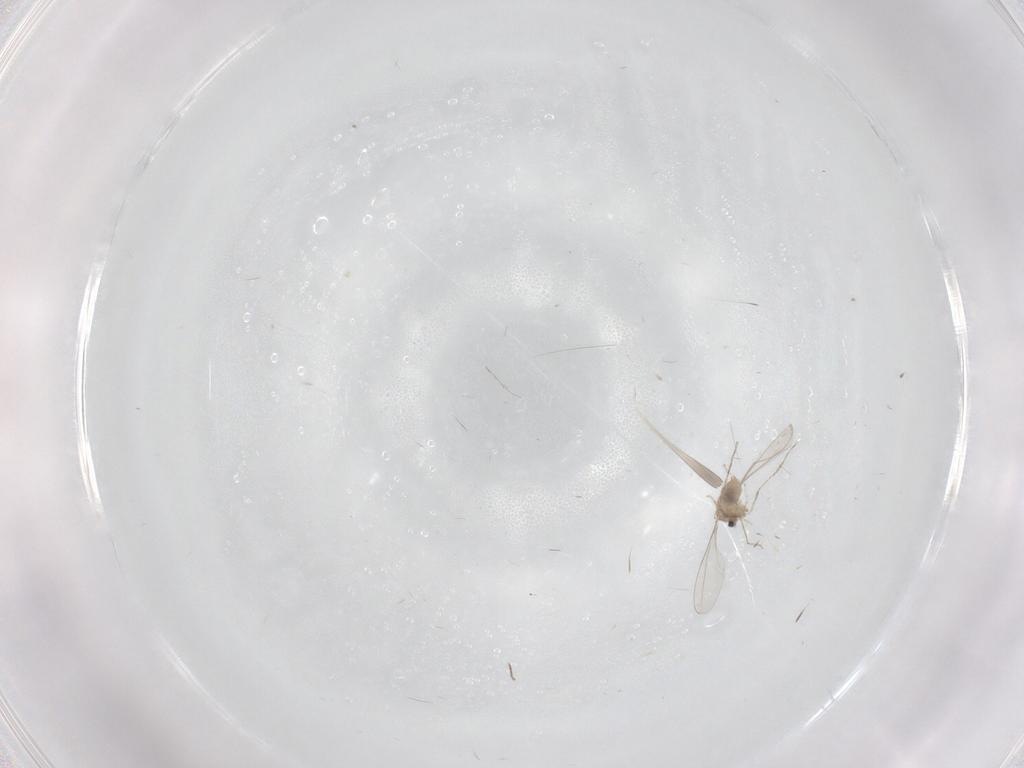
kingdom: Animalia
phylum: Arthropoda
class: Insecta
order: Diptera
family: Cecidomyiidae
